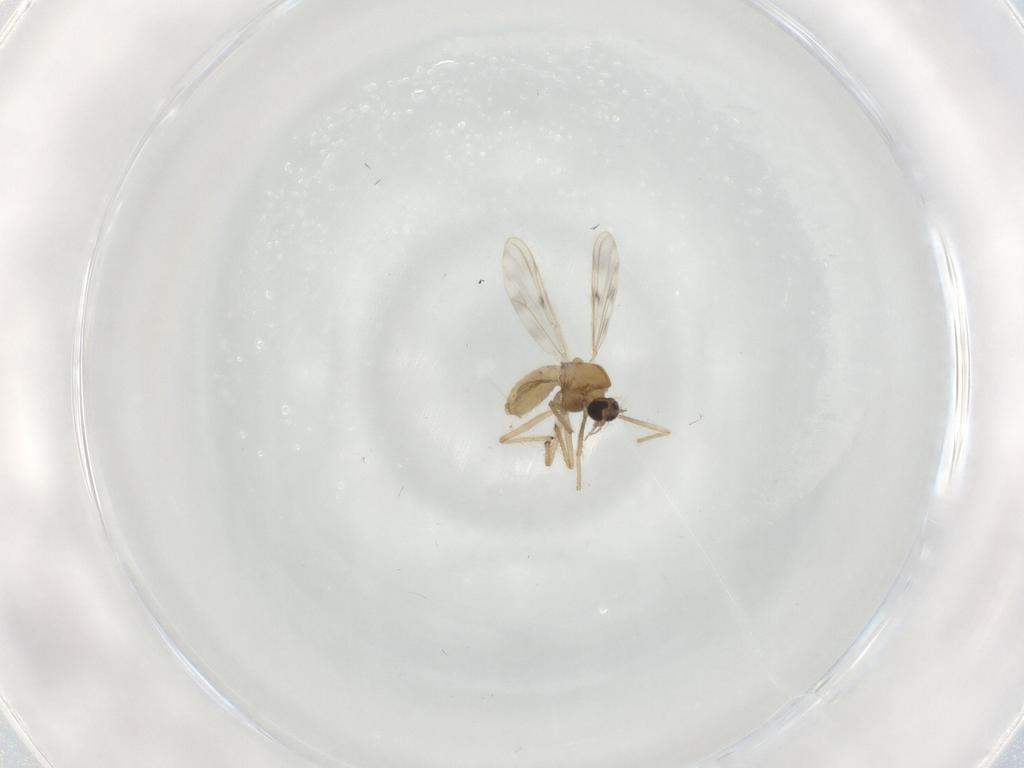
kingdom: Animalia
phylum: Arthropoda
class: Insecta
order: Diptera
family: Chironomidae
